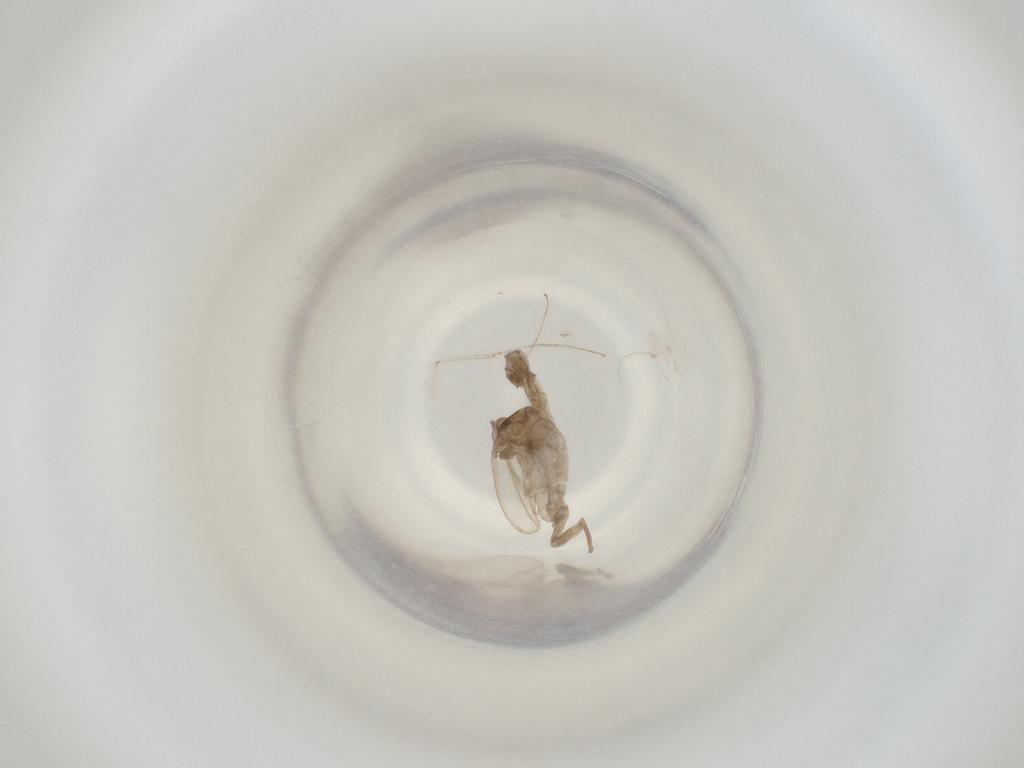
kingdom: Animalia
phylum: Arthropoda
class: Insecta
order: Diptera
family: Cecidomyiidae
